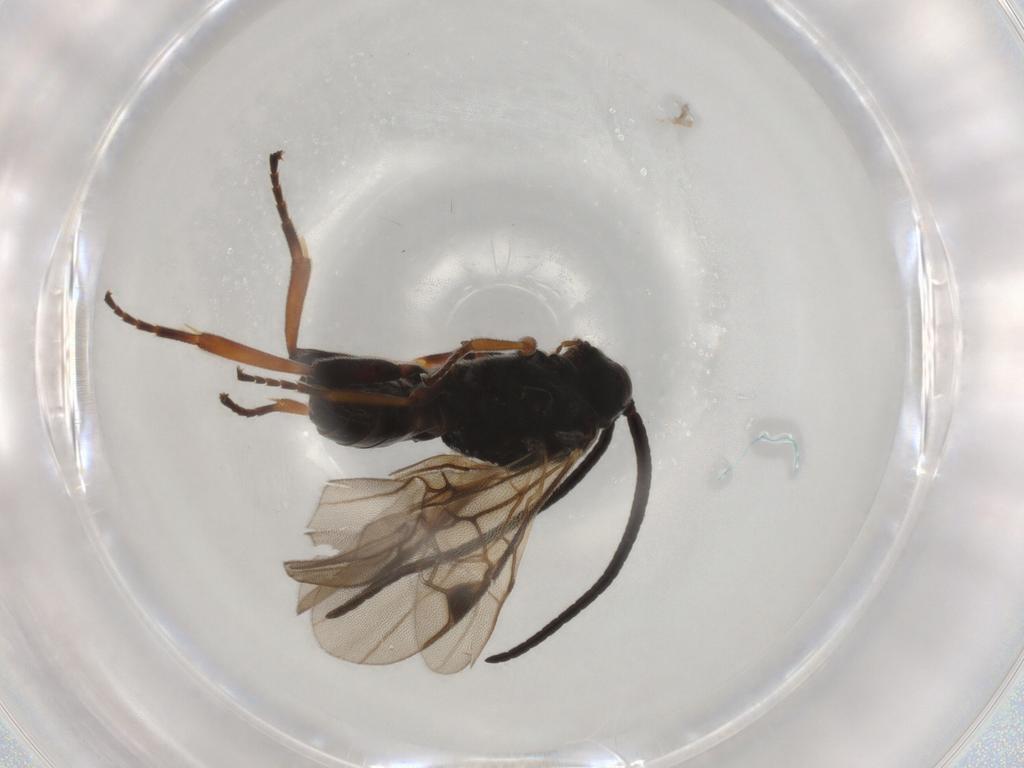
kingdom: Animalia
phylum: Arthropoda
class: Insecta
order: Hymenoptera
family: Braconidae
